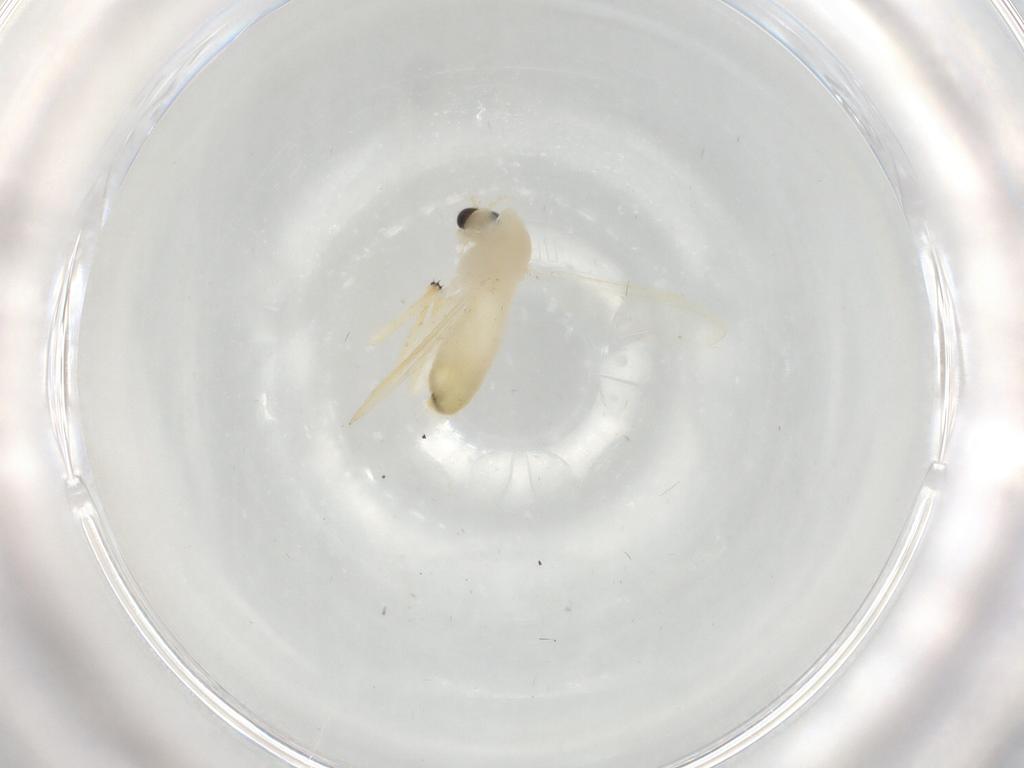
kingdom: Animalia
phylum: Arthropoda
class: Insecta
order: Diptera
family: Chironomidae
